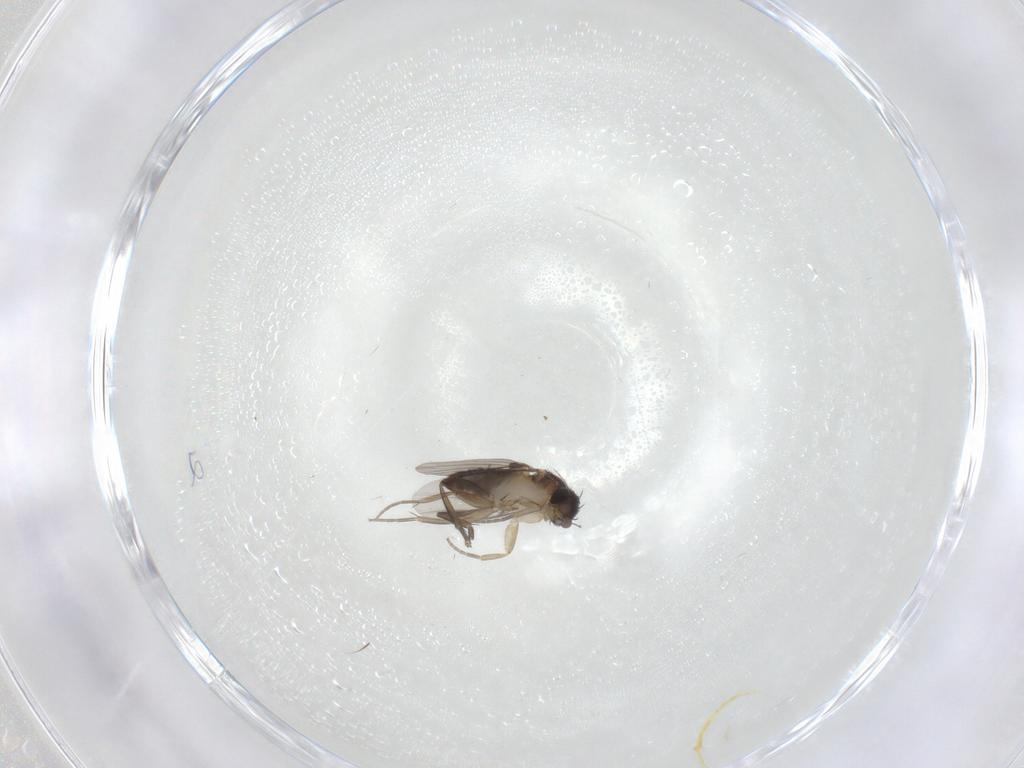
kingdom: Animalia
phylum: Arthropoda
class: Insecta
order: Diptera
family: Phoridae
